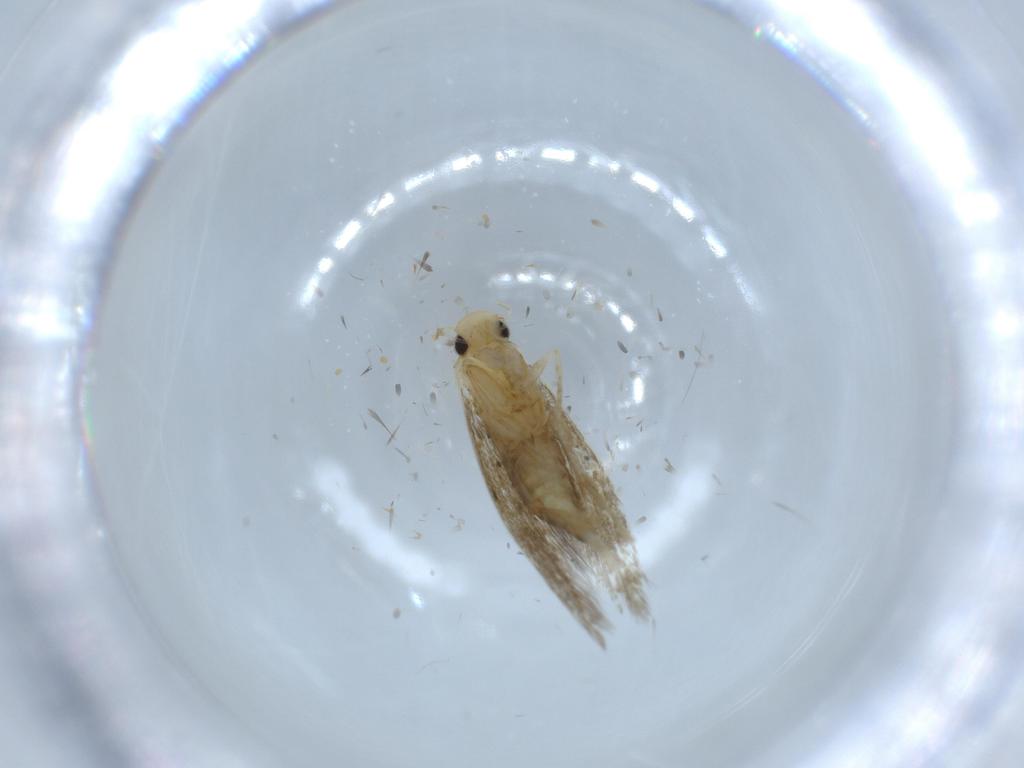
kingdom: Animalia
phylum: Arthropoda
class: Insecta
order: Lepidoptera
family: Tineidae
